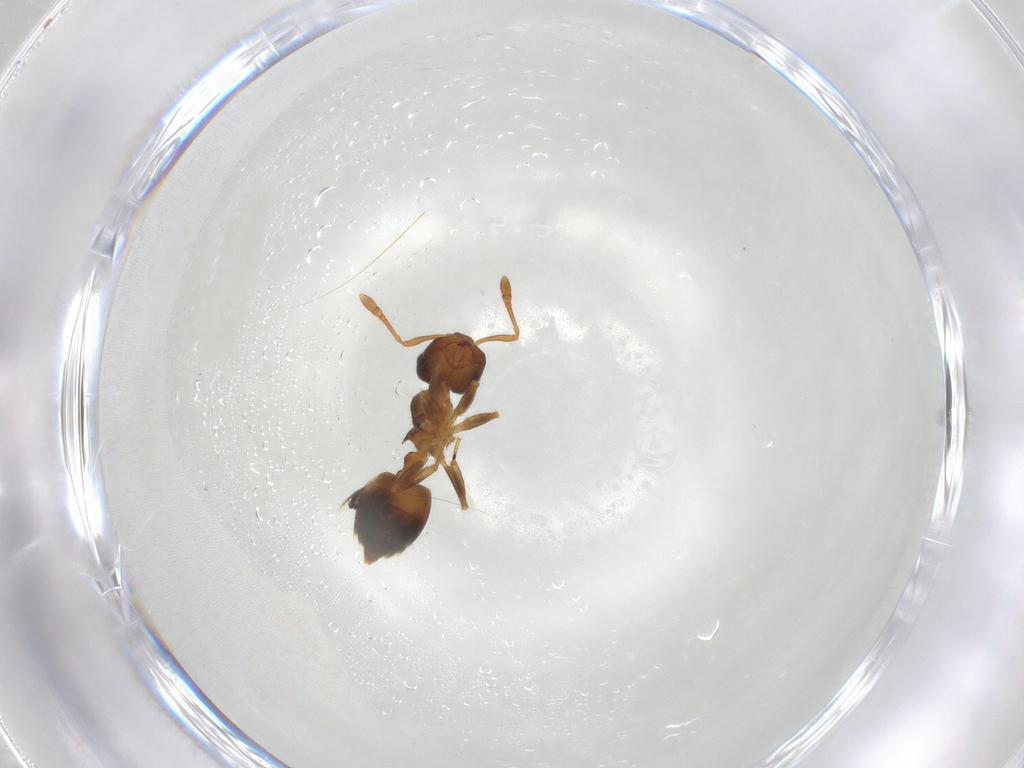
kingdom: Animalia
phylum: Arthropoda
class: Insecta
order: Hymenoptera
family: Formicidae
